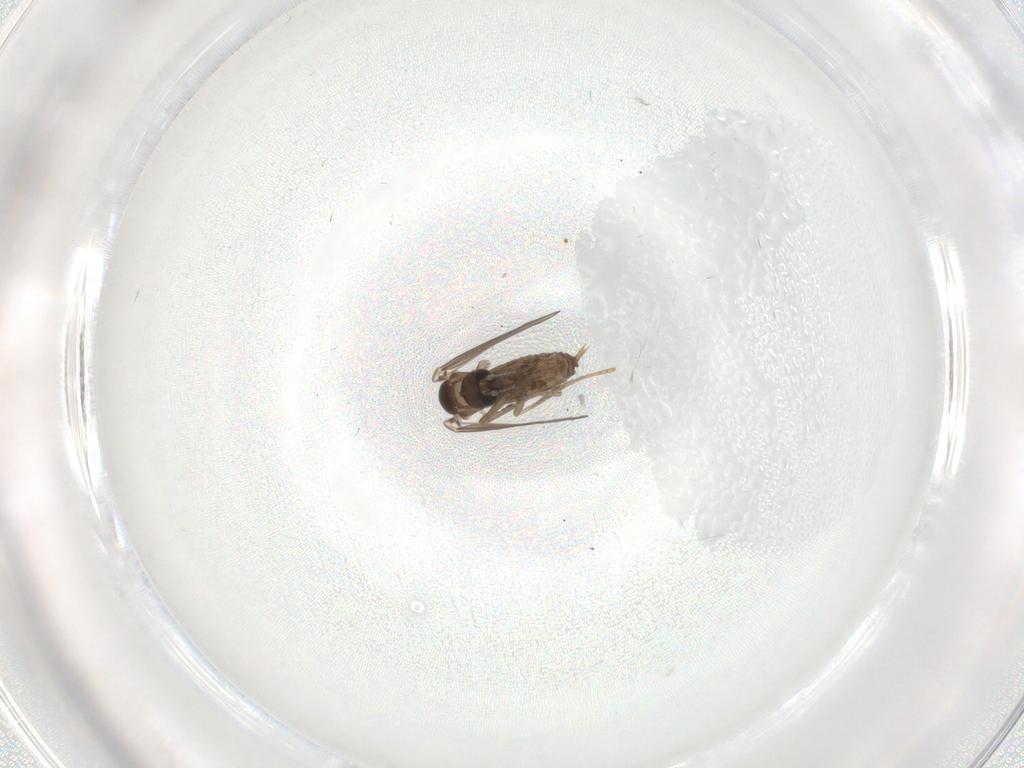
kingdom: Animalia
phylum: Arthropoda
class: Insecta
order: Diptera
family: Psychodidae
